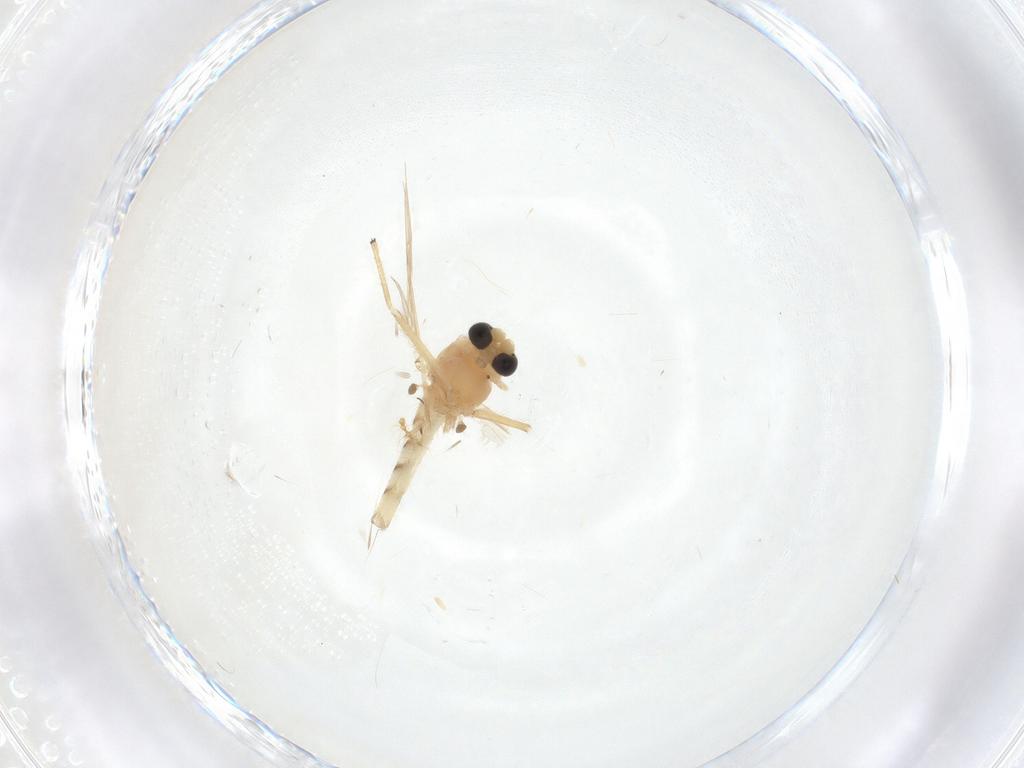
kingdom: Animalia
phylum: Arthropoda
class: Insecta
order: Diptera
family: Chironomidae
